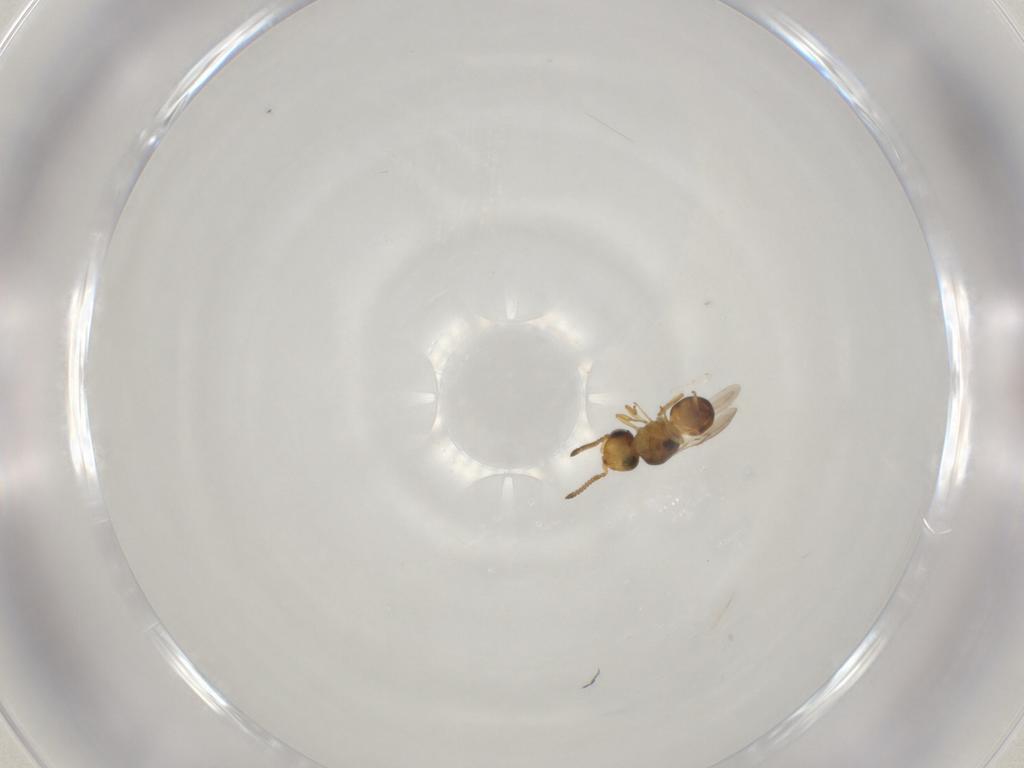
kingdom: Animalia
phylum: Arthropoda
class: Insecta
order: Hymenoptera
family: Scelionidae
